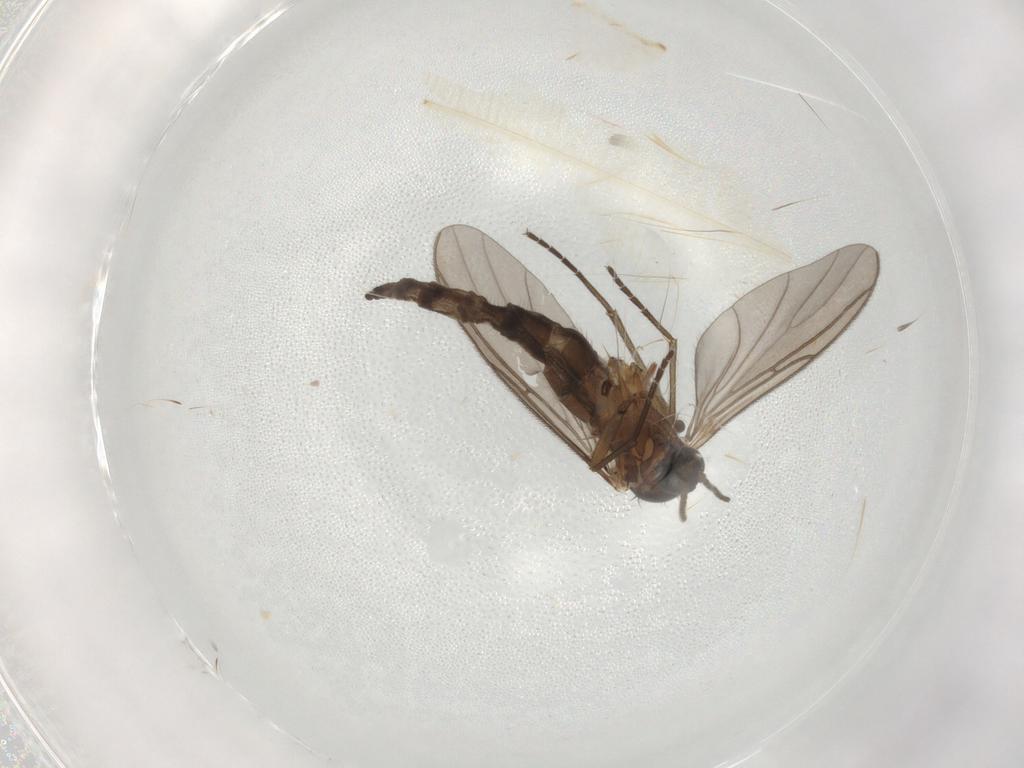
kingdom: Animalia
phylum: Arthropoda
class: Insecta
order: Diptera
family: Sciaridae
